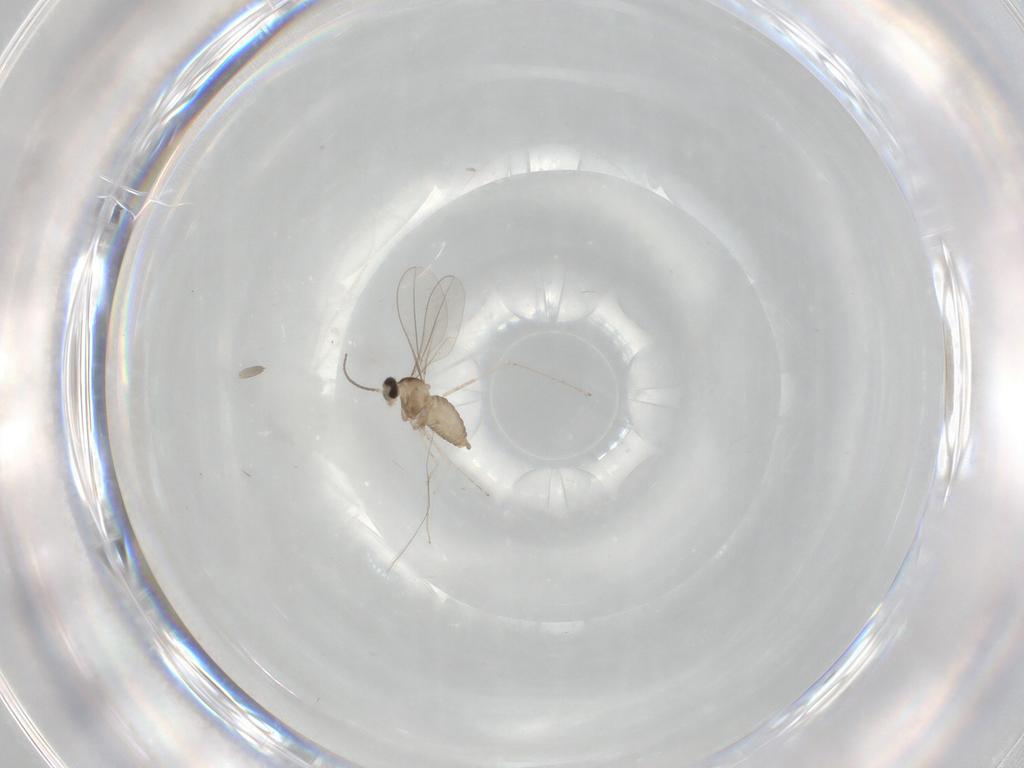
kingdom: Animalia
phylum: Arthropoda
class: Insecta
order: Diptera
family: Cecidomyiidae
